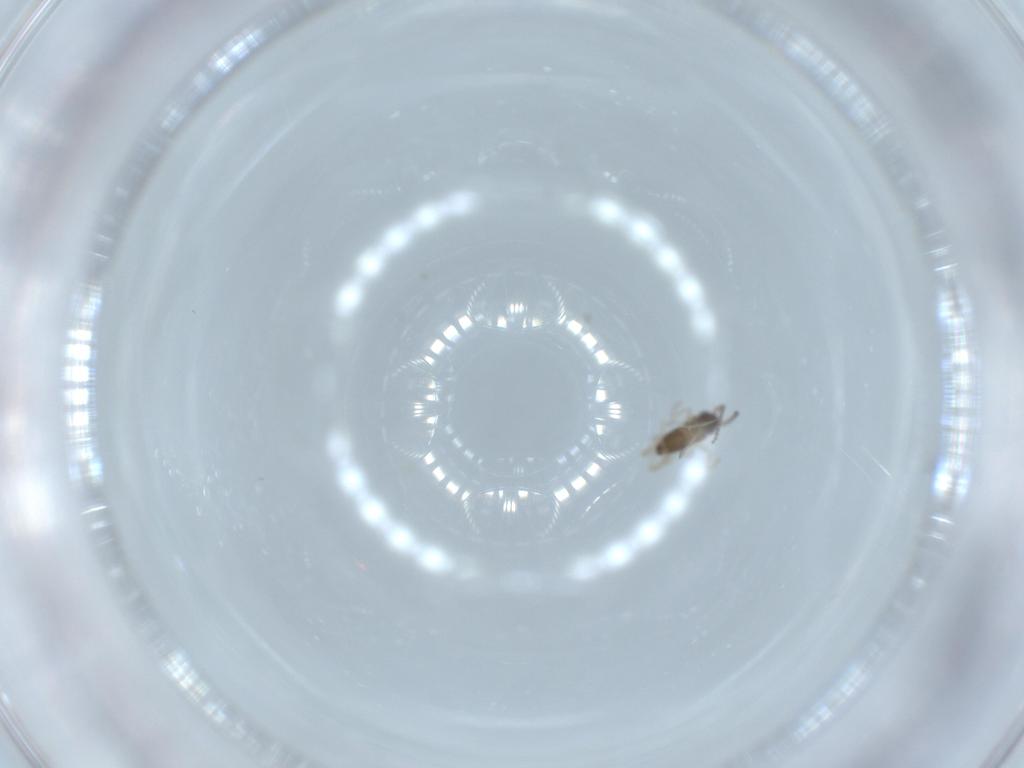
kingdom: Animalia
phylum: Arthropoda
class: Insecta
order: Diptera
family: Cecidomyiidae
